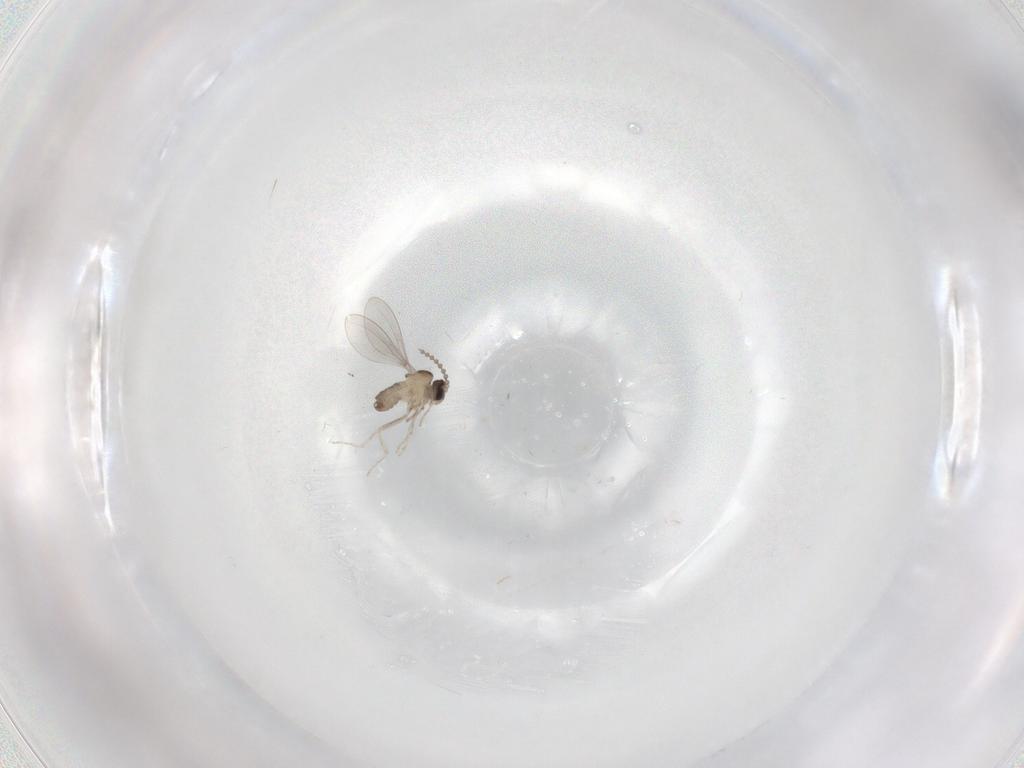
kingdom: Animalia
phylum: Arthropoda
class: Insecta
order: Diptera
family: Cecidomyiidae
